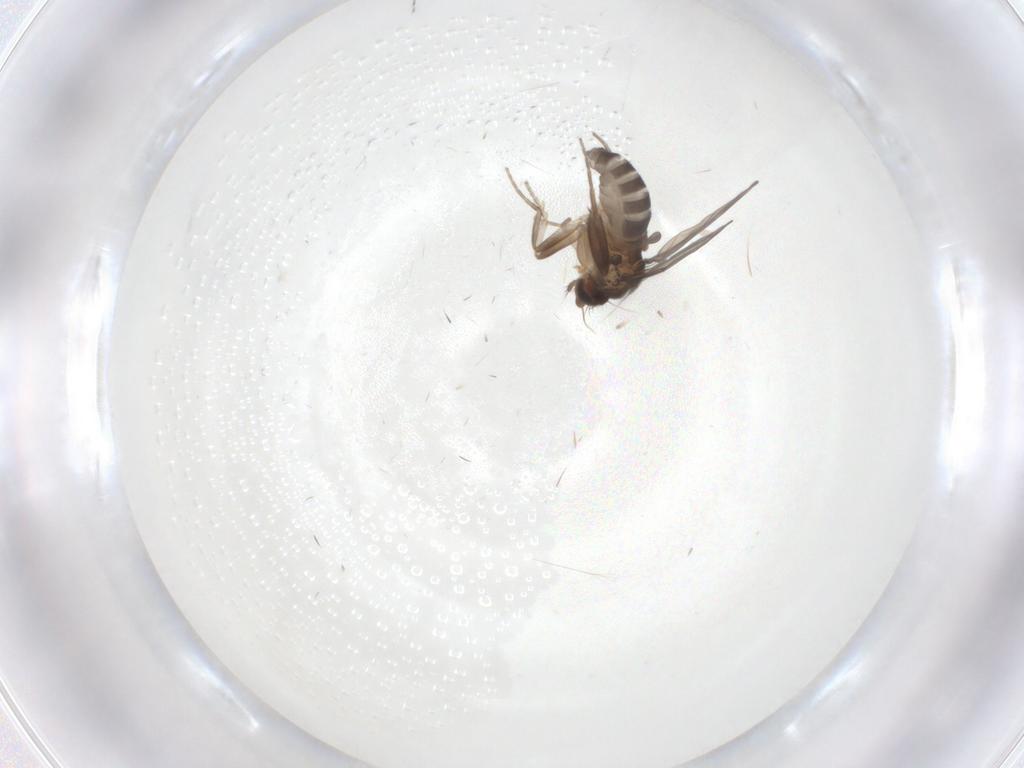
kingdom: Animalia
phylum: Arthropoda
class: Insecta
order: Diptera
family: Phoridae
